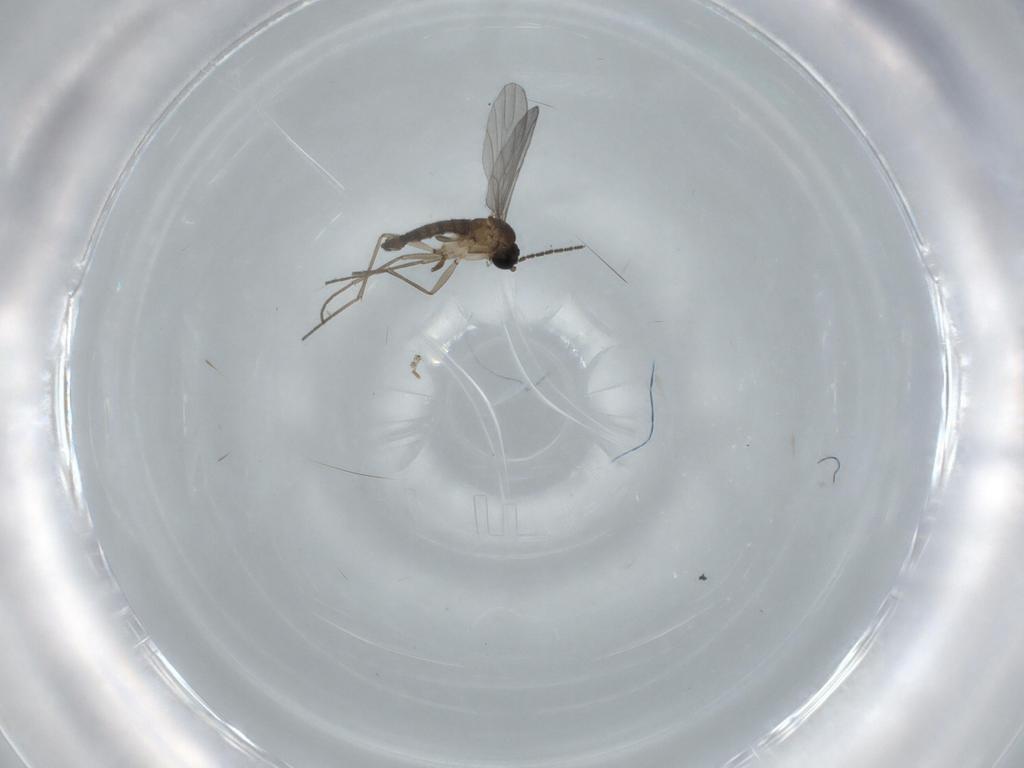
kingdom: Animalia
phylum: Arthropoda
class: Insecta
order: Diptera
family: Sciaridae
